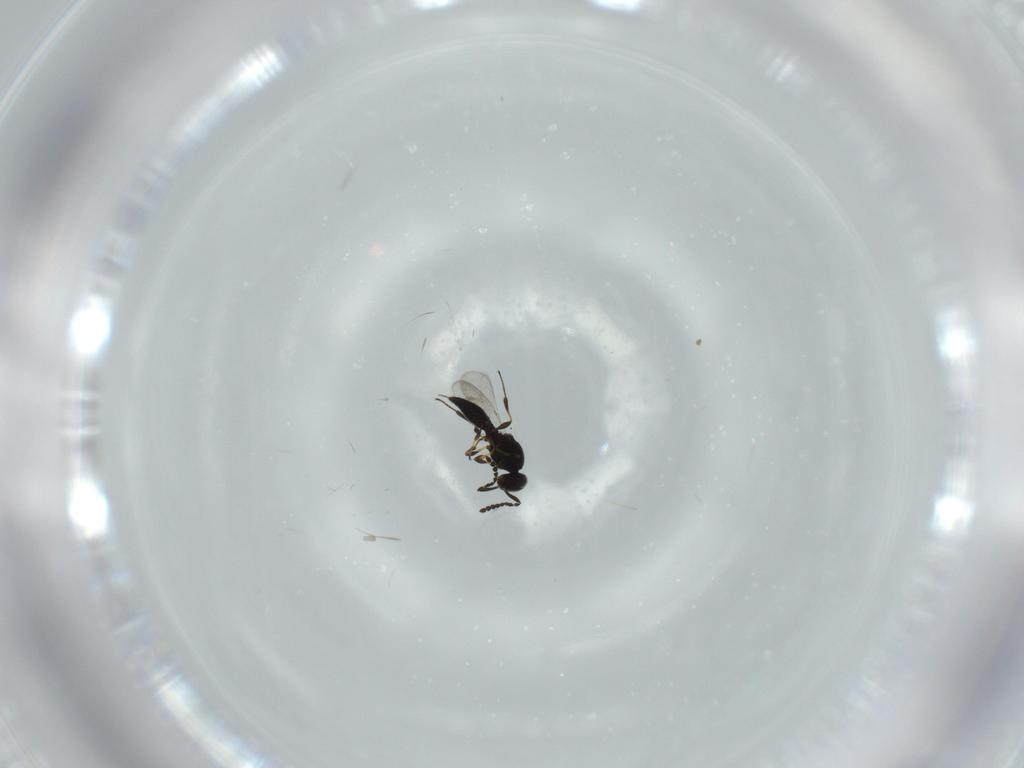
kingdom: Animalia
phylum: Arthropoda
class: Insecta
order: Hymenoptera
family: Platygastridae
